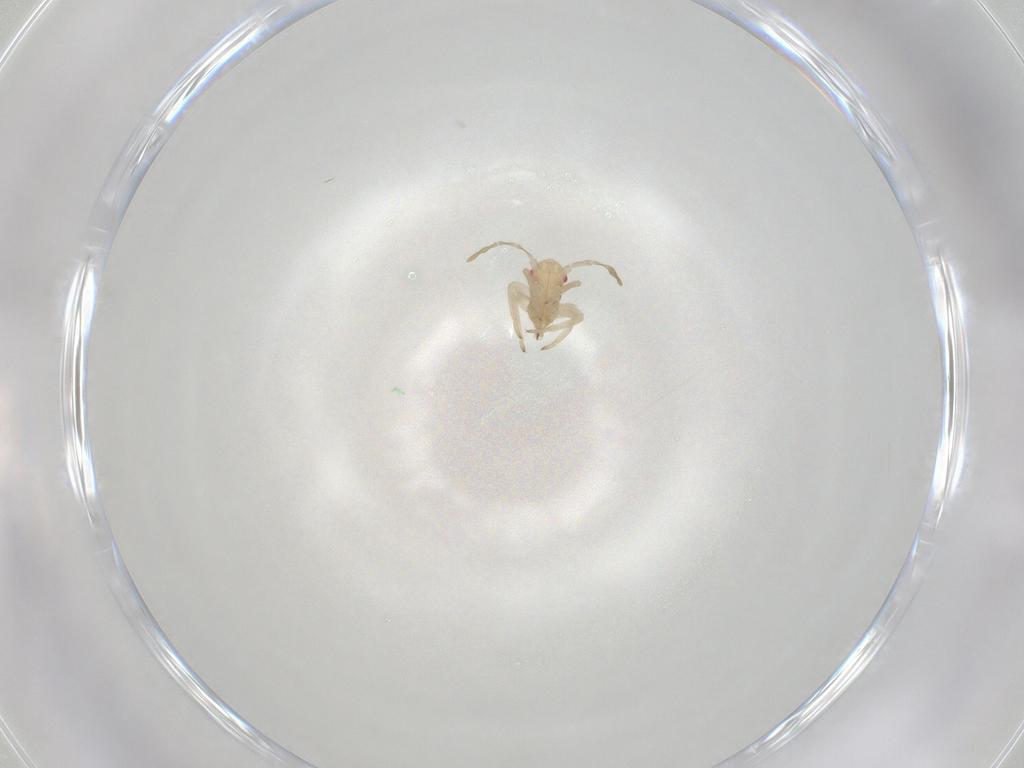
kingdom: Animalia
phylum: Arthropoda
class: Insecta
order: Hemiptera
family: Miridae
